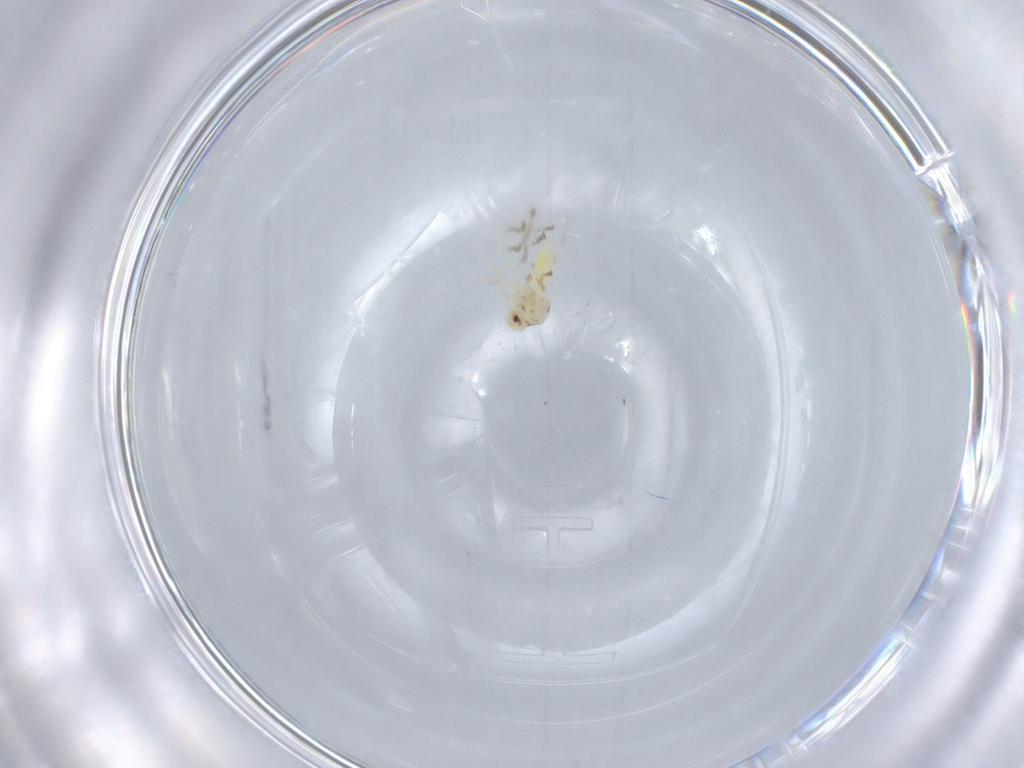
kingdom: Animalia
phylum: Arthropoda
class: Insecta
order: Hemiptera
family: Aleyrodidae
